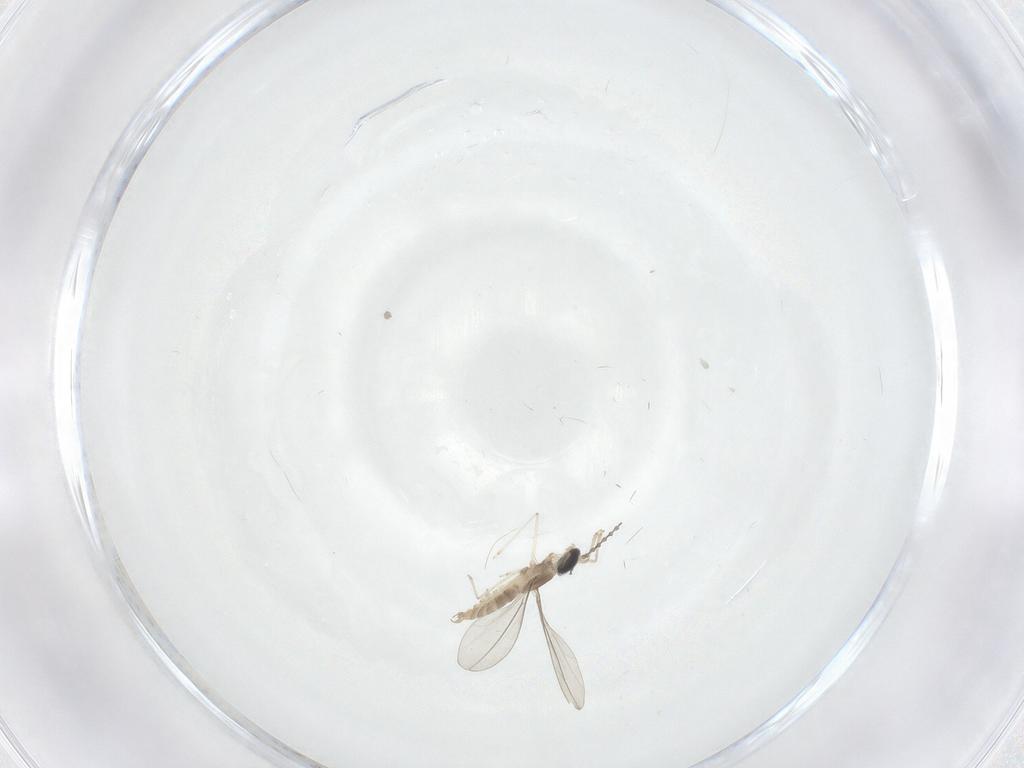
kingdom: Animalia
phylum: Arthropoda
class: Insecta
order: Diptera
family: Cecidomyiidae
